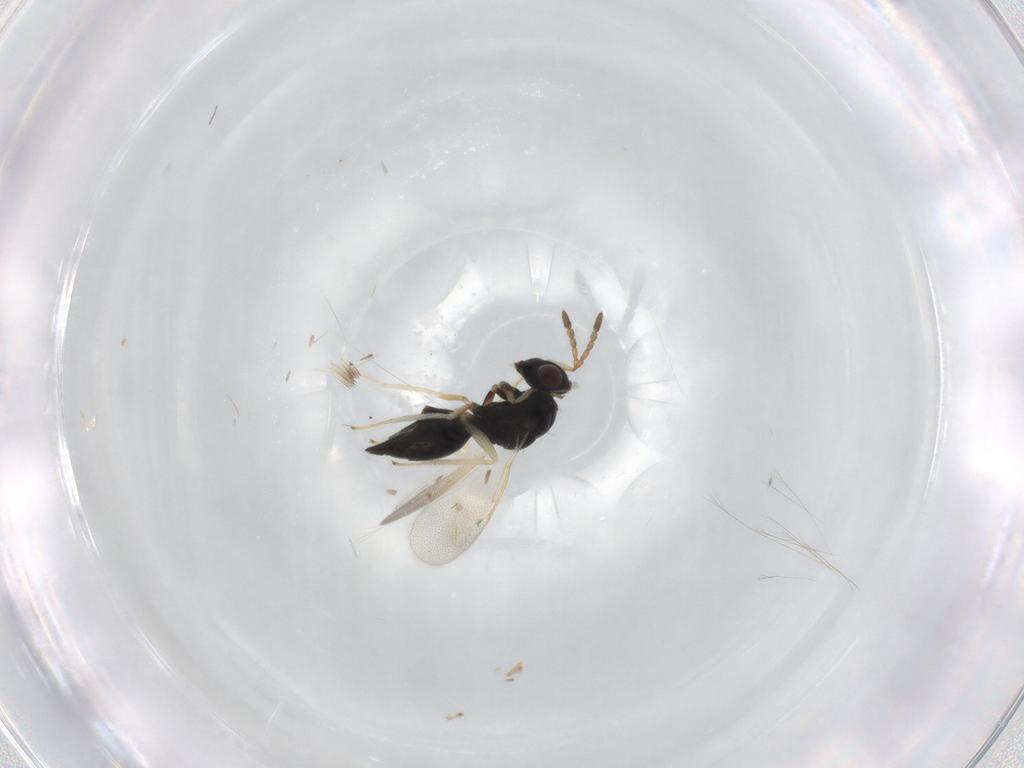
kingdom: Animalia
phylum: Arthropoda
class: Insecta
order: Hymenoptera
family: Eulophidae
